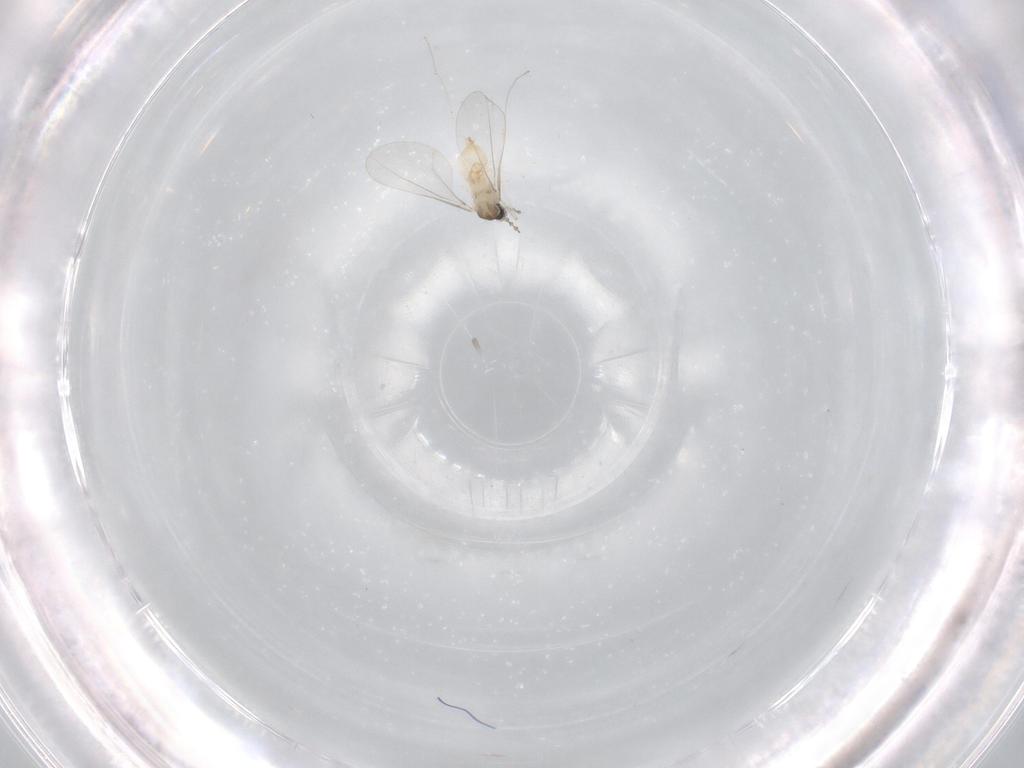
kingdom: Animalia
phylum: Arthropoda
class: Insecta
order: Diptera
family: Cecidomyiidae
